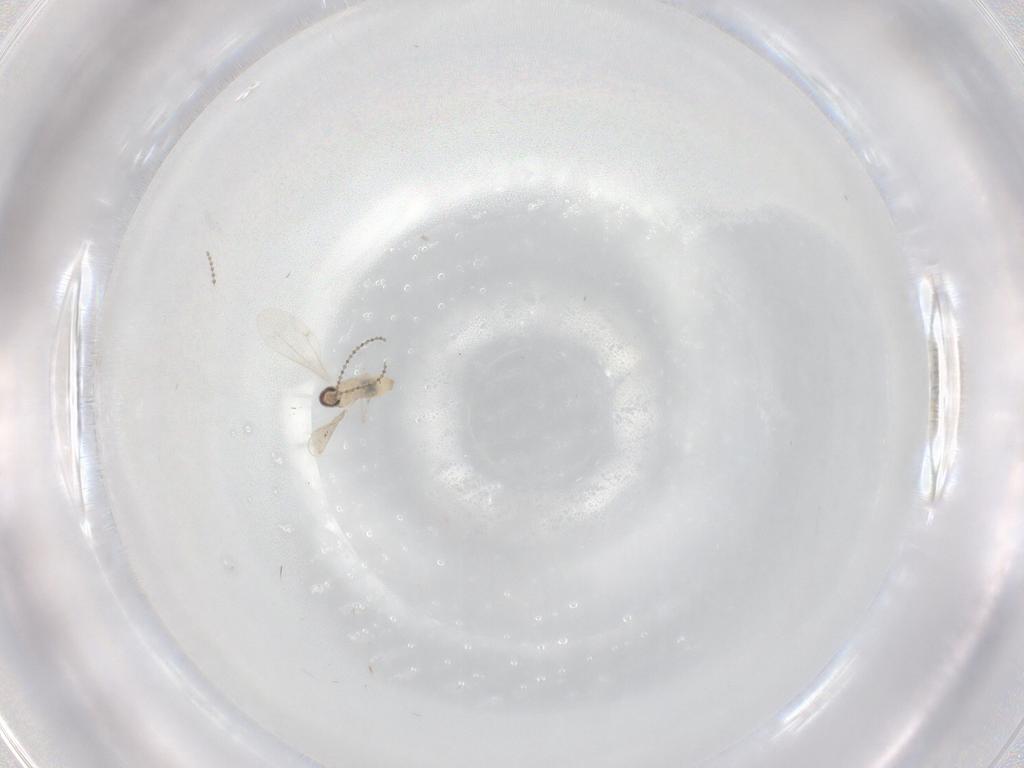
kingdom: Animalia
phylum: Arthropoda
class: Insecta
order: Diptera
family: Psychodidae
